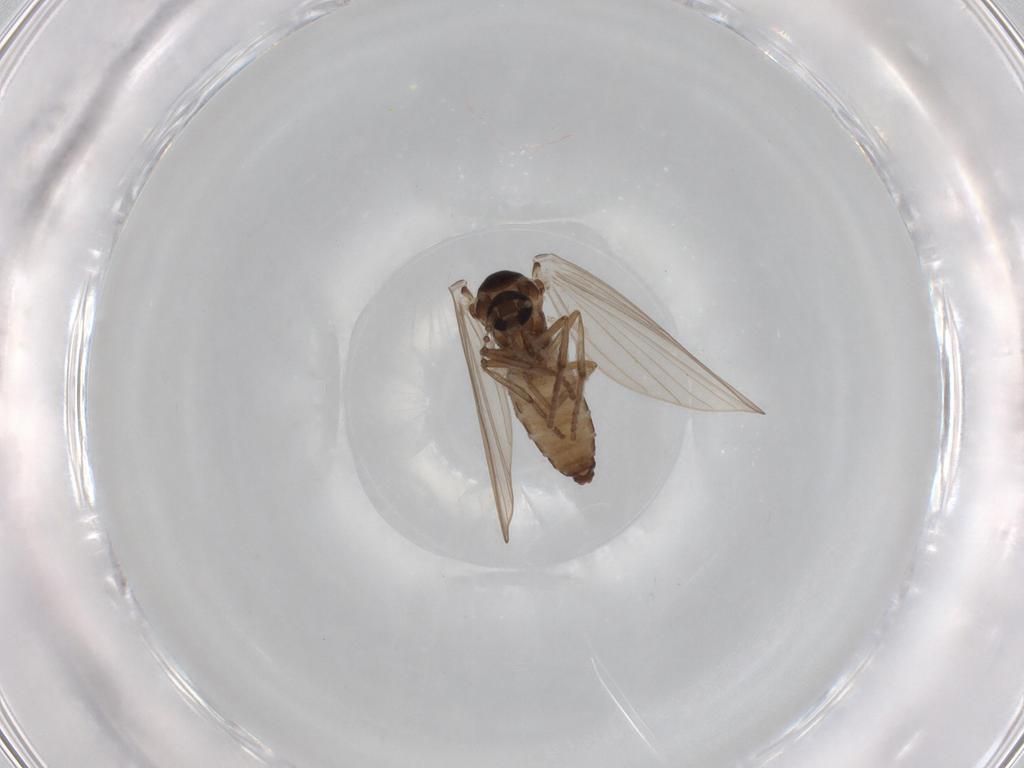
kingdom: Animalia
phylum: Arthropoda
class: Insecta
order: Diptera
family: Psychodidae
